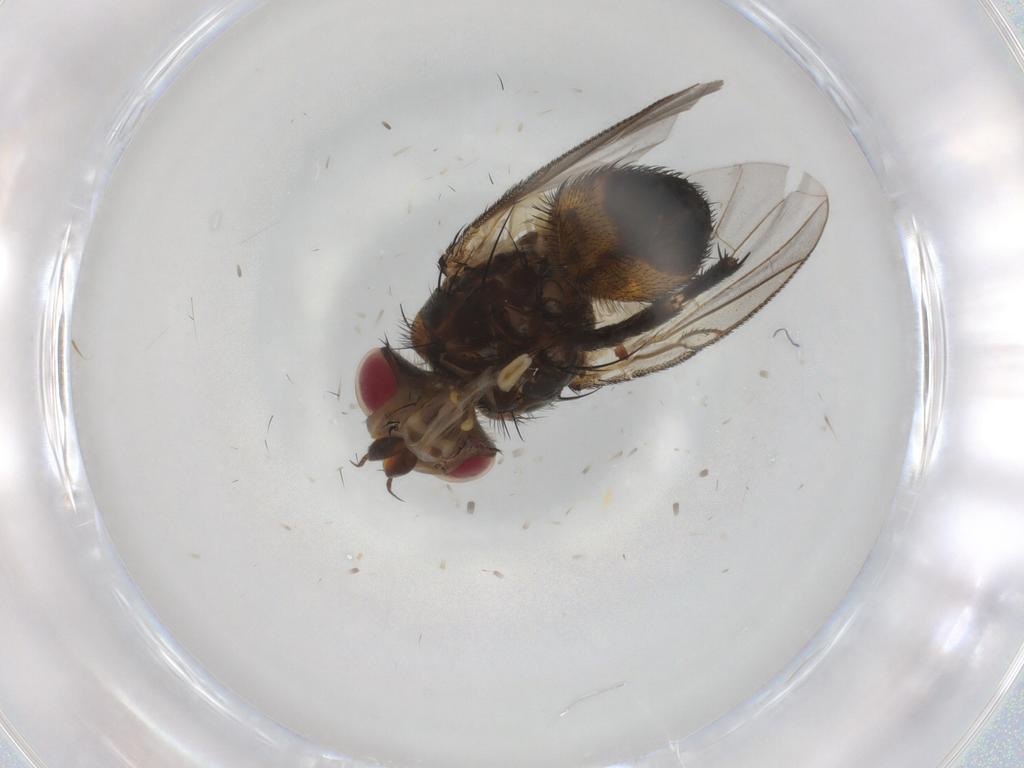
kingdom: Animalia
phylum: Arthropoda
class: Insecta
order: Diptera
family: Tachinidae
